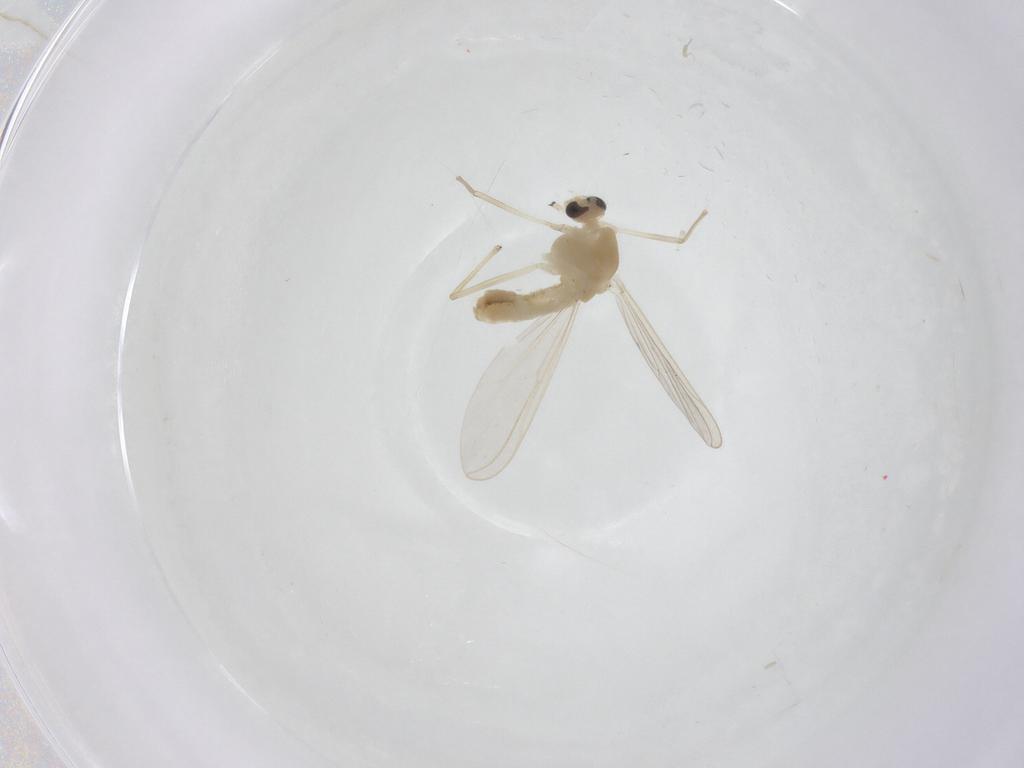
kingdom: Animalia
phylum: Arthropoda
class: Insecta
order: Diptera
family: Chironomidae
